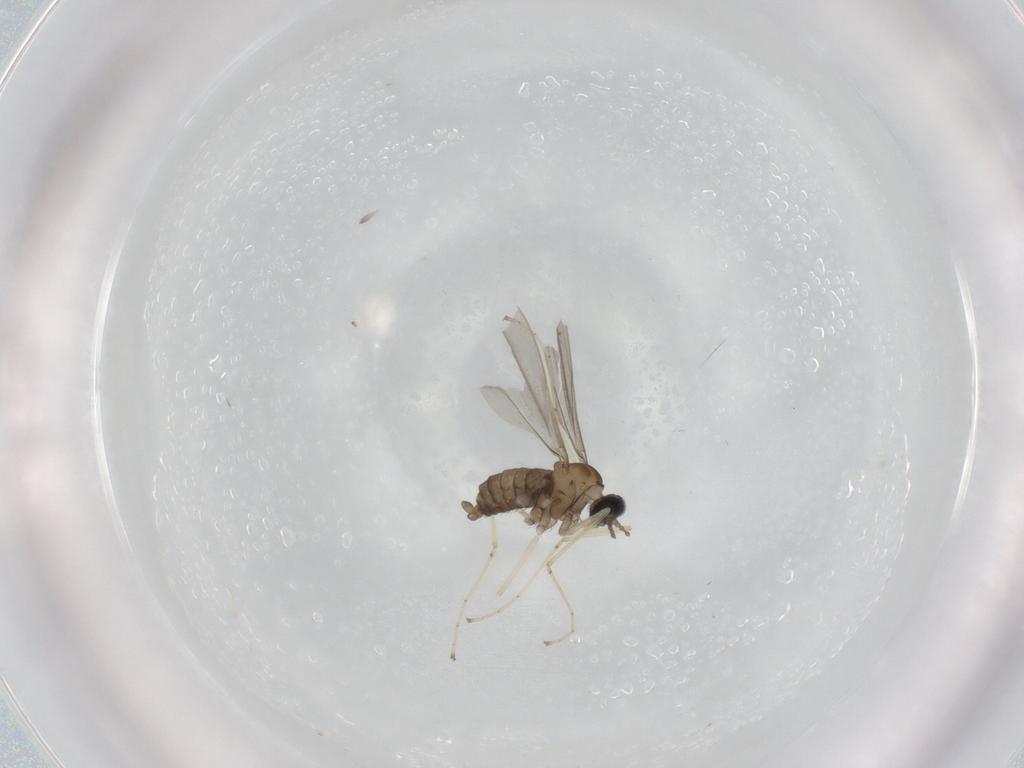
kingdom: Animalia
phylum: Arthropoda
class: Insecta
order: Diptera
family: Cecidomyiidae
